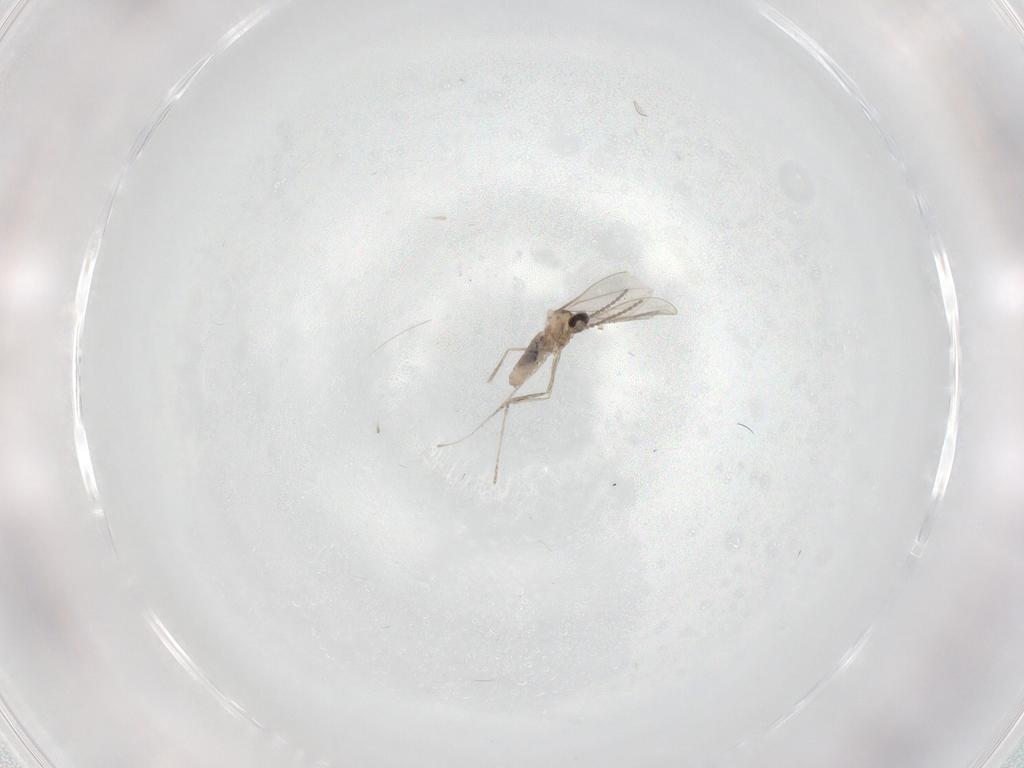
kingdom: Animalia
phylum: Arthropoda
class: Insecta
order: Diptera
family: Cecidomyiidae
